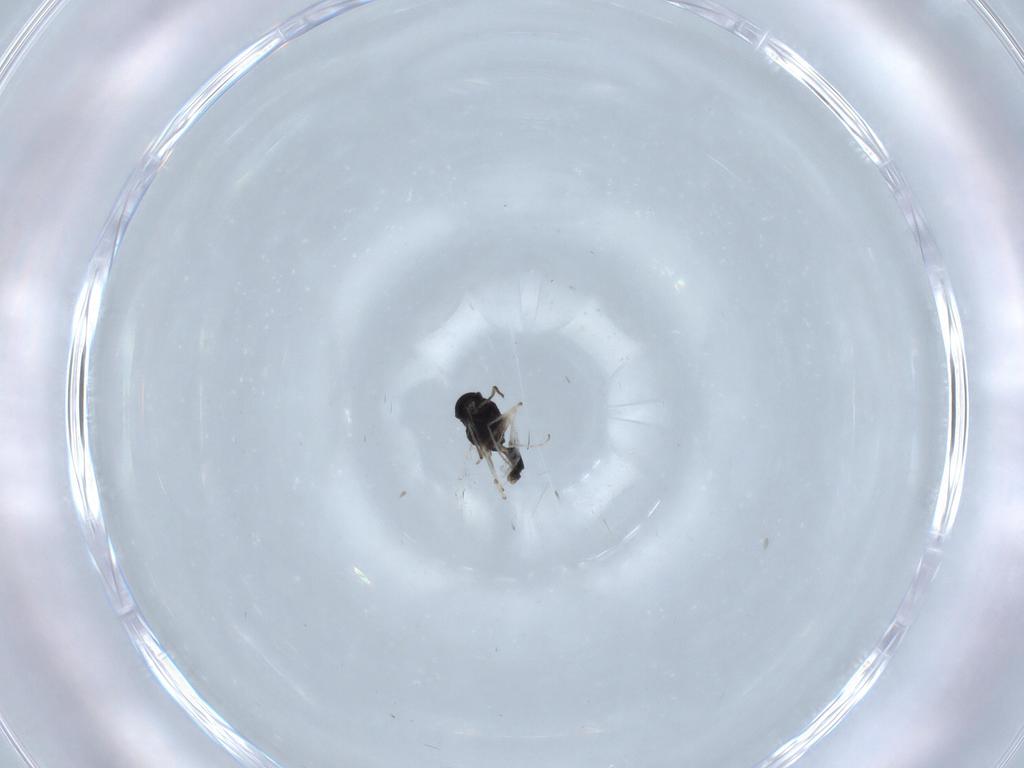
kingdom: Animalia
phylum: Arthropoda
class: Insecta
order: Diptera
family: Chironomidae
